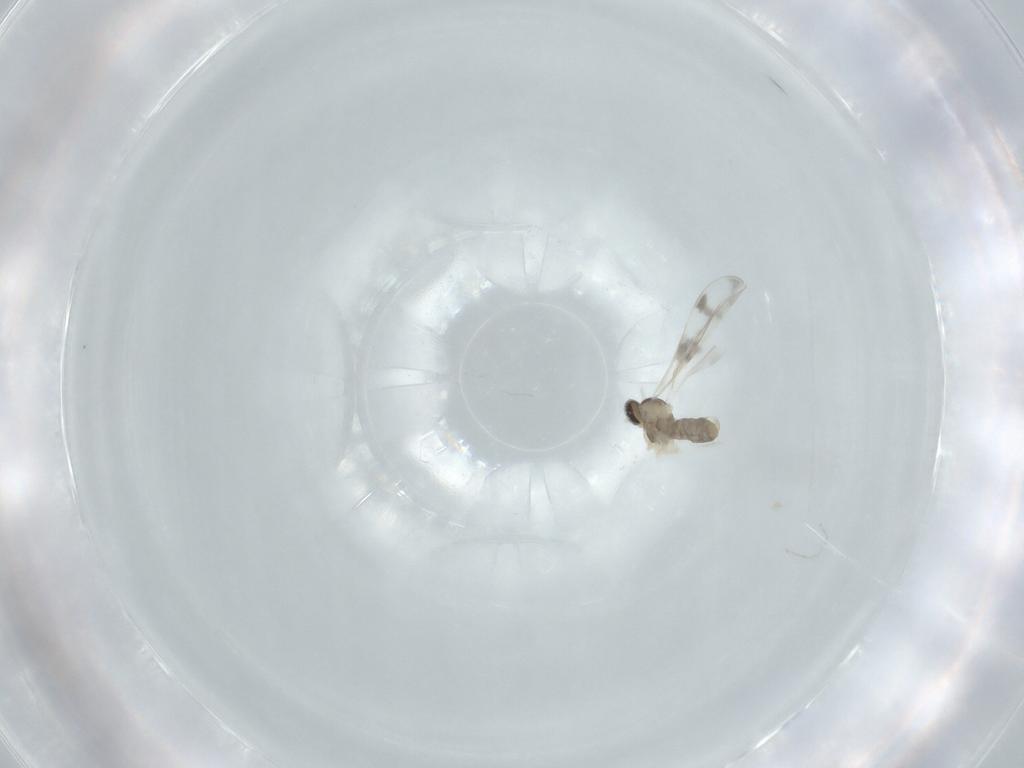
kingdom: Animalia
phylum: Arthropoda
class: Insecta
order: Diptera
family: Cecidomyiidae
